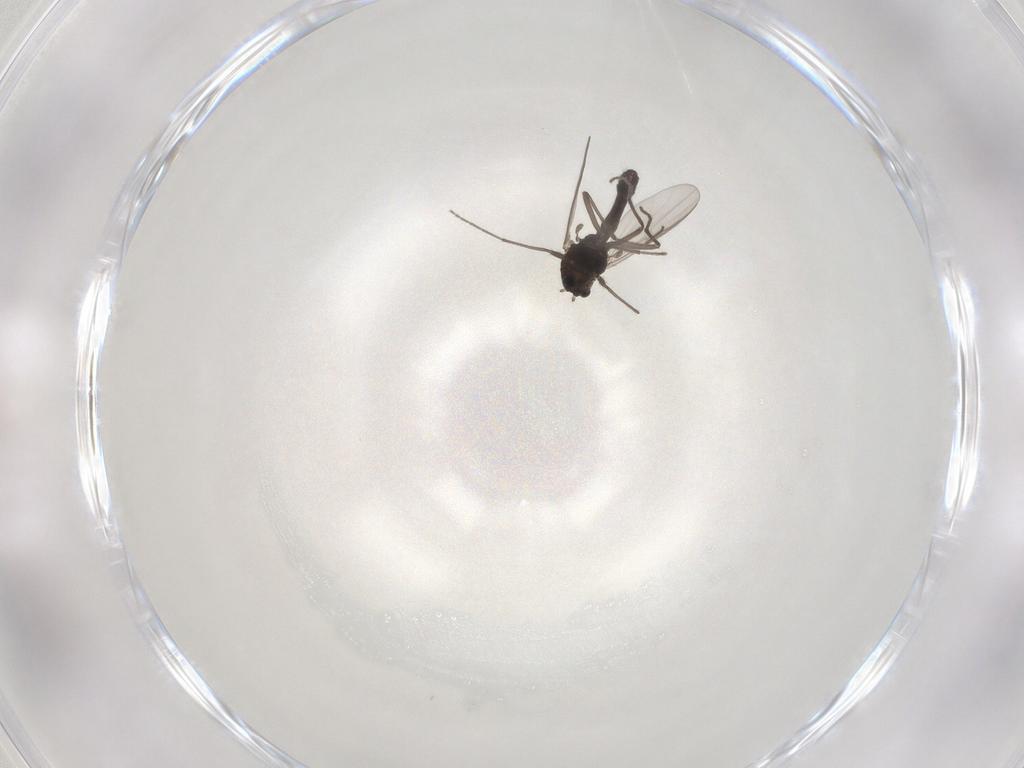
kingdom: Animalia
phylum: Arthropoda
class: Insecta
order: Diptera
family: Chironomidae
